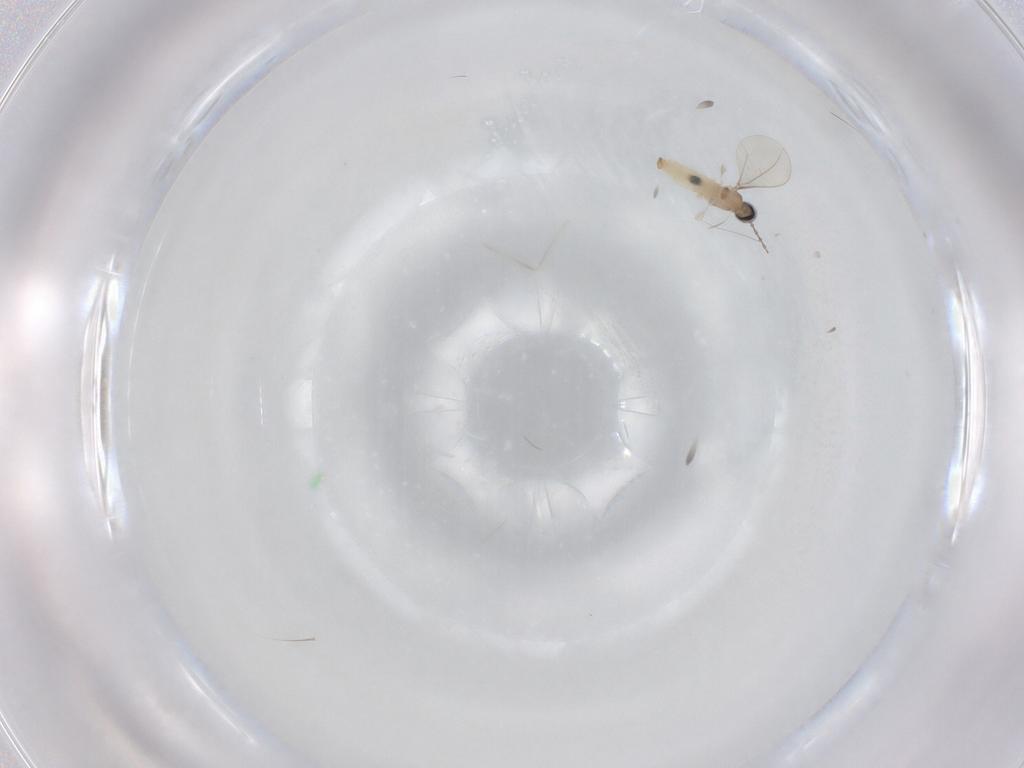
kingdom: Animalia
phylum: Arthropoda
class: Insecta
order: Diptera
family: Cecidomyiidae
